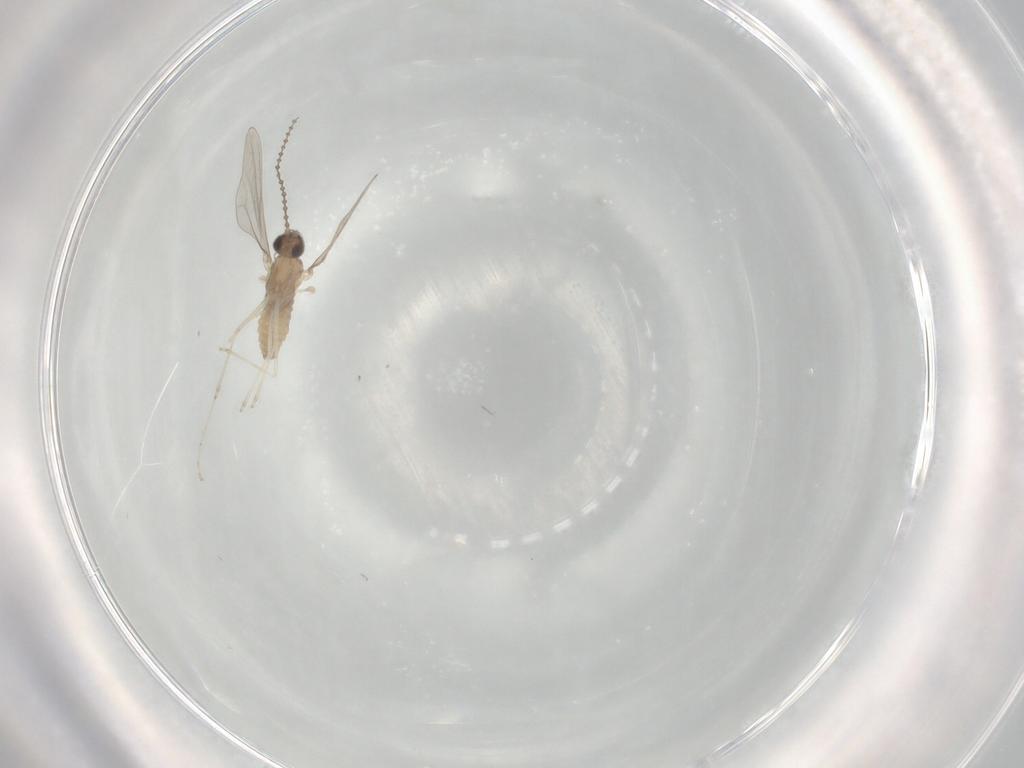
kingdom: Animalia
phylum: Arthropoda
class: Insecta
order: Diptera
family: Cecidomyiidae
